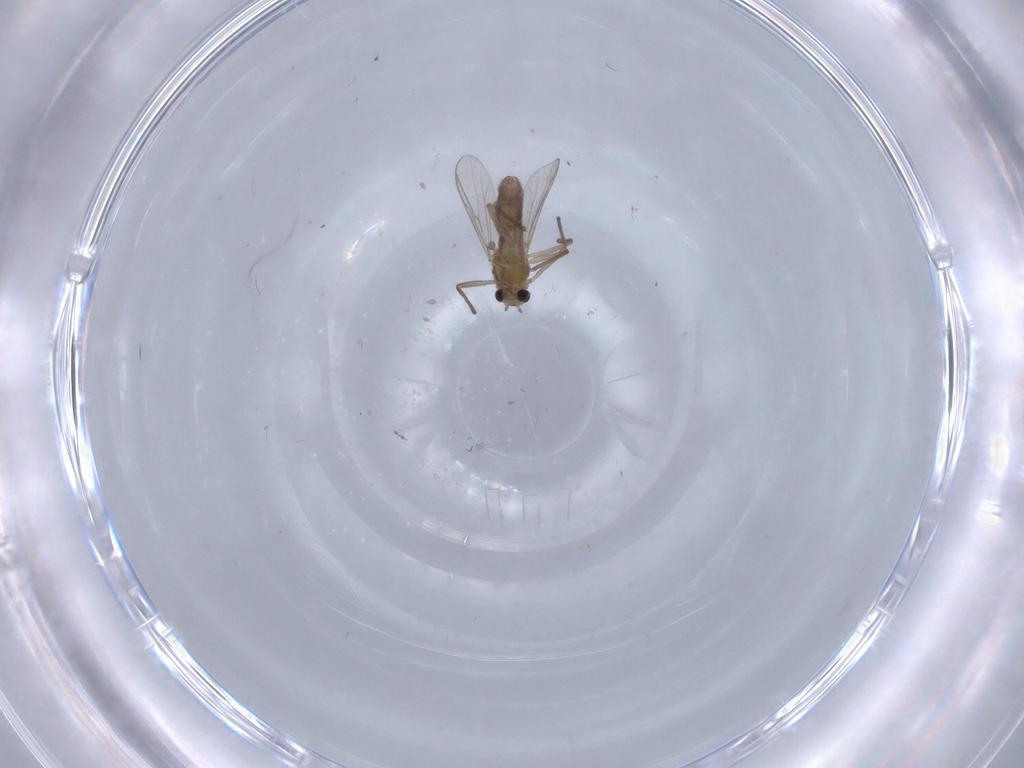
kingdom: Animalia
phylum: Arthropoda
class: Insecta
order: Diptera
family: Chironomidae
